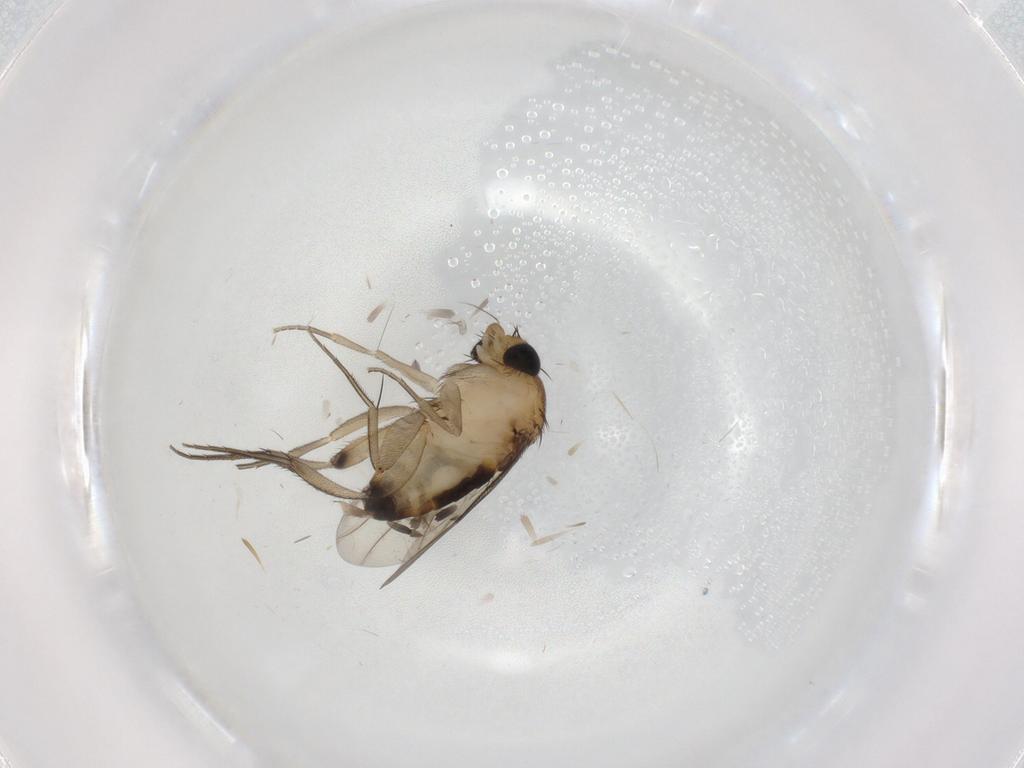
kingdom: Animalia
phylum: Arthropoda
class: Insecta
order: Diptera
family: Phoridae
